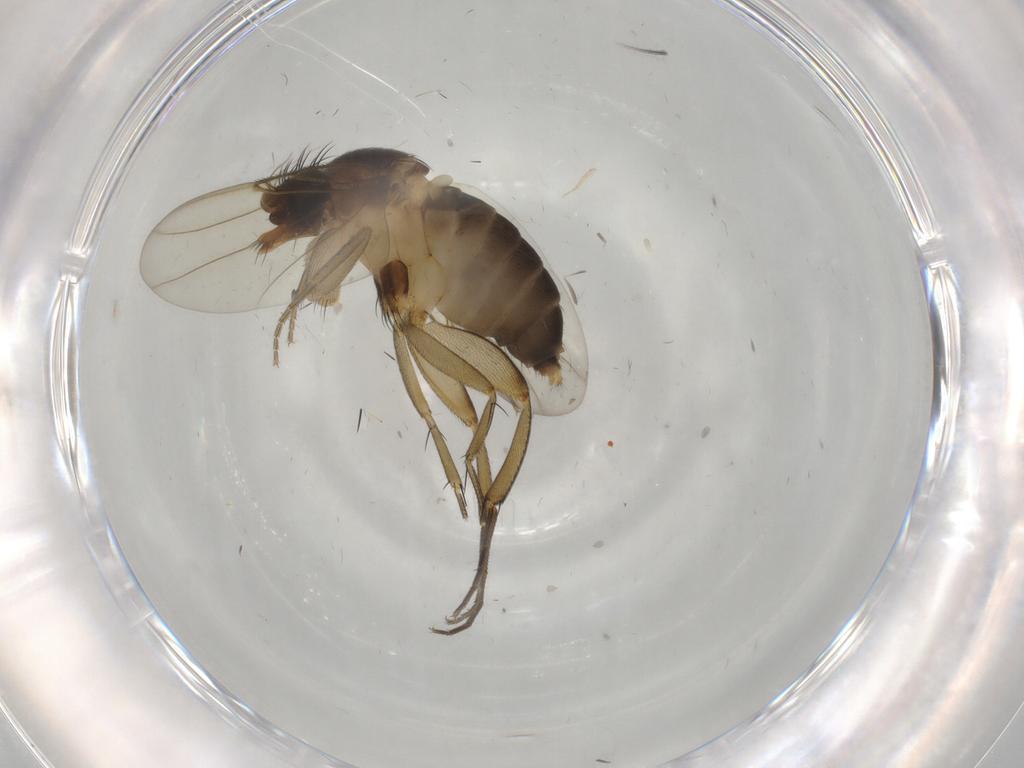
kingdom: Animalia
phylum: Arthropoda
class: Insecta
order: Diptera
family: Phoridae
